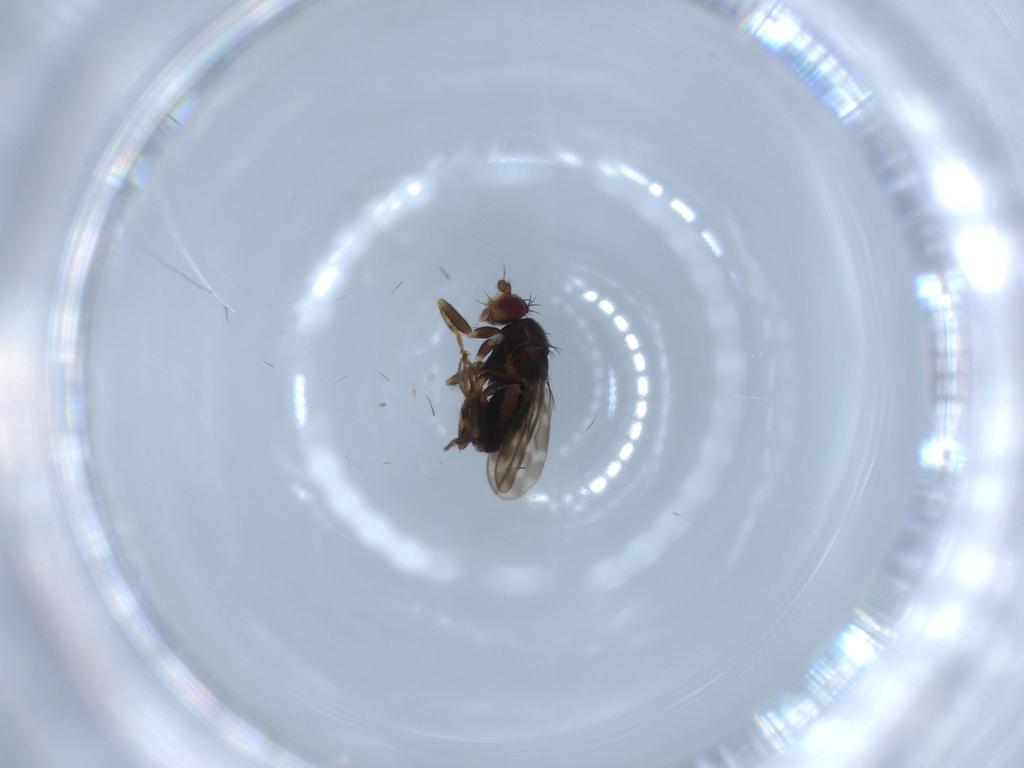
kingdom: Animalia
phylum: Arthropoda
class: Insecta
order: Diptera
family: Sphaeroceridae
